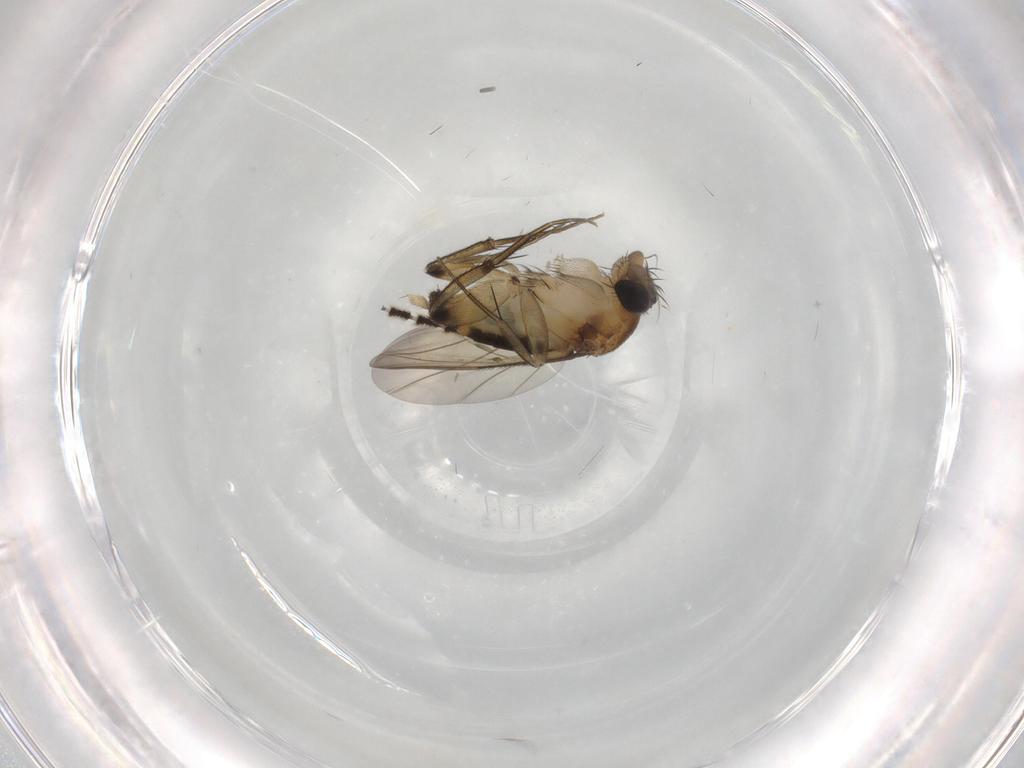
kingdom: Animalia
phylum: Arthropoda
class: Insecta
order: Diptera
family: Phoridae
